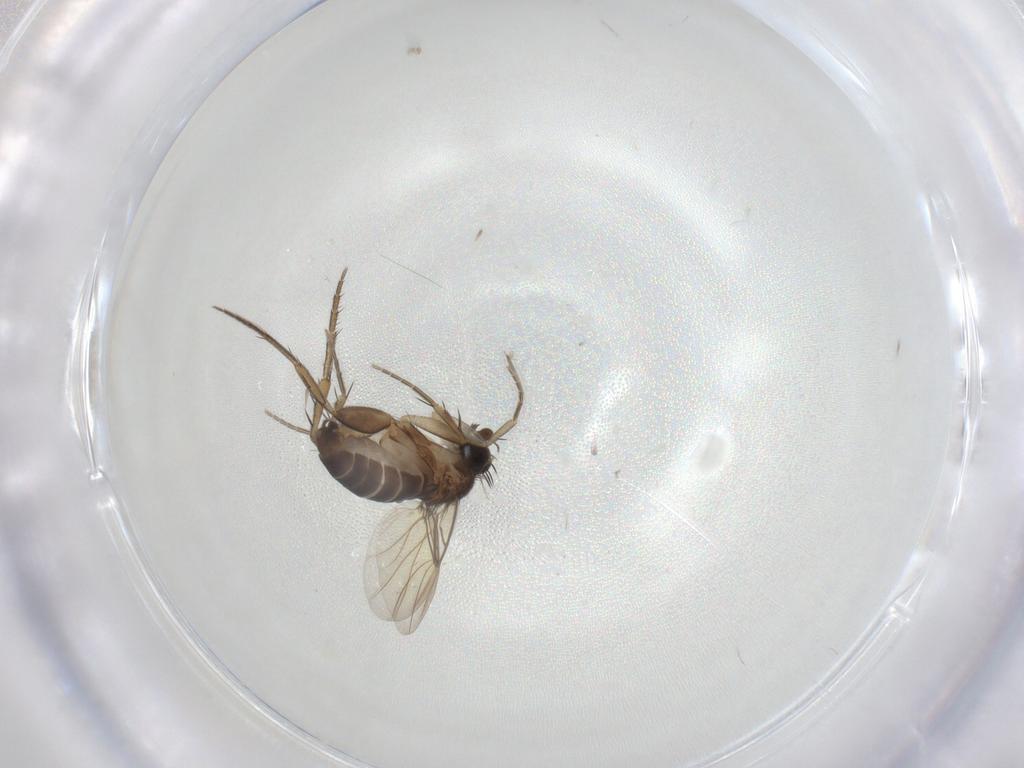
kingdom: Animalia
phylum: Arthropoda
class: Insecta
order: Diptera
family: Phoridae
